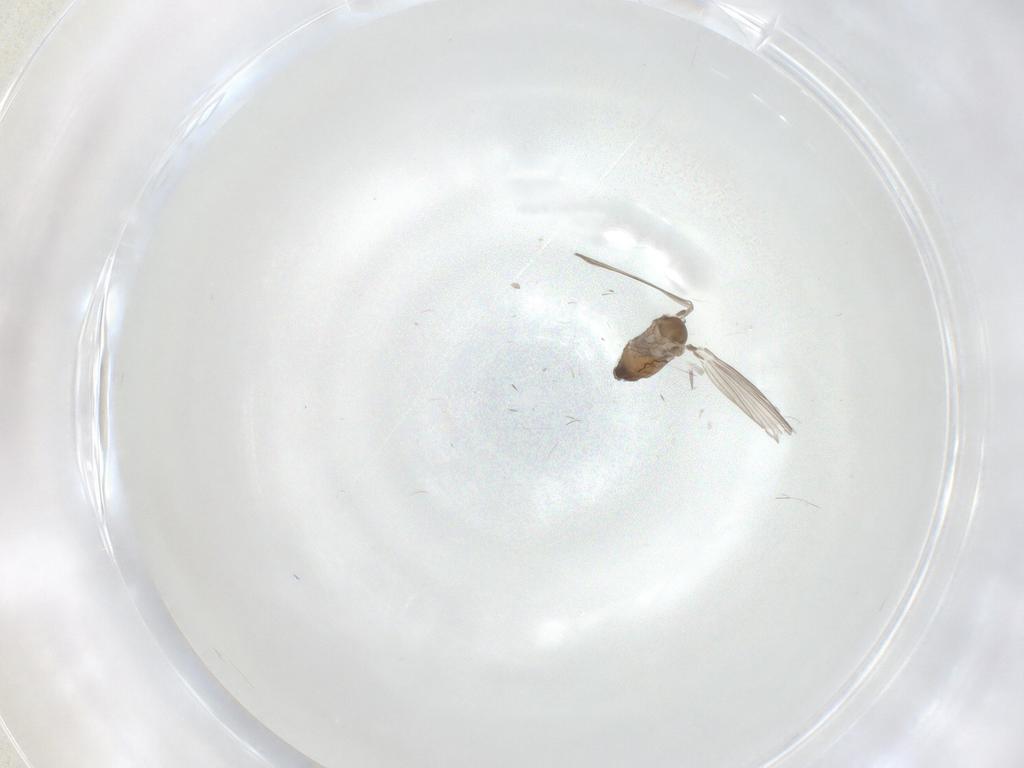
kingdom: Animalia
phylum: Arthropoda
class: Insecta
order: Diptera
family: Psychodidae
